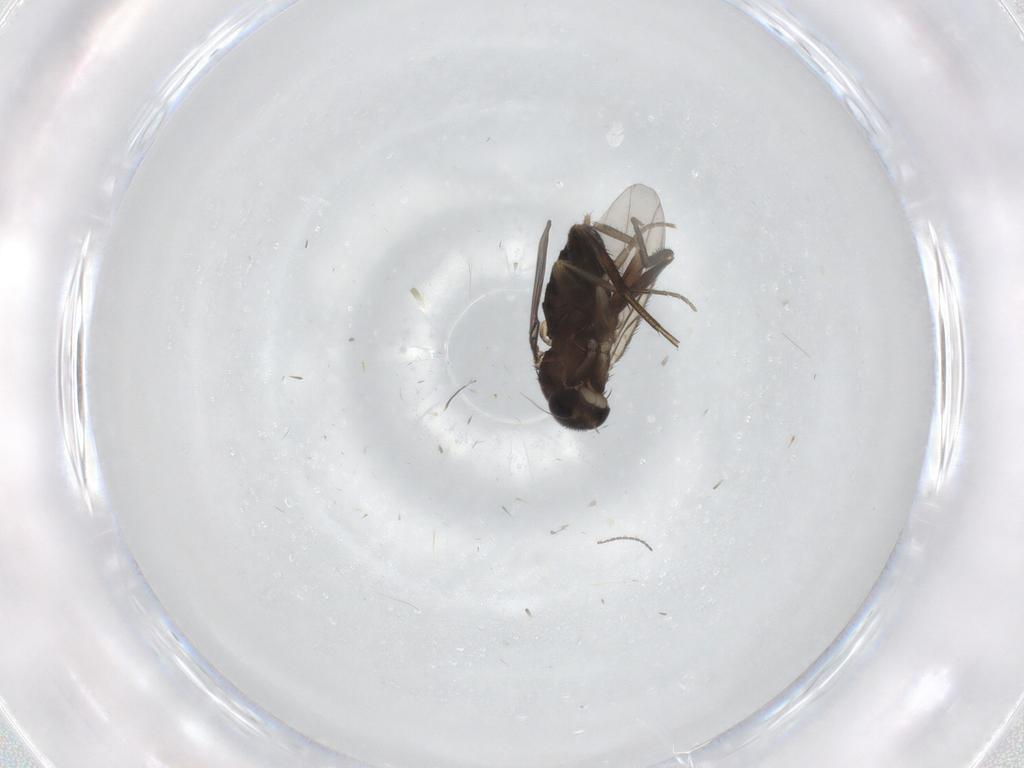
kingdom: Animalia
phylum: Arthropoda
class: Insecta
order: Diptera
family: Phoridae
